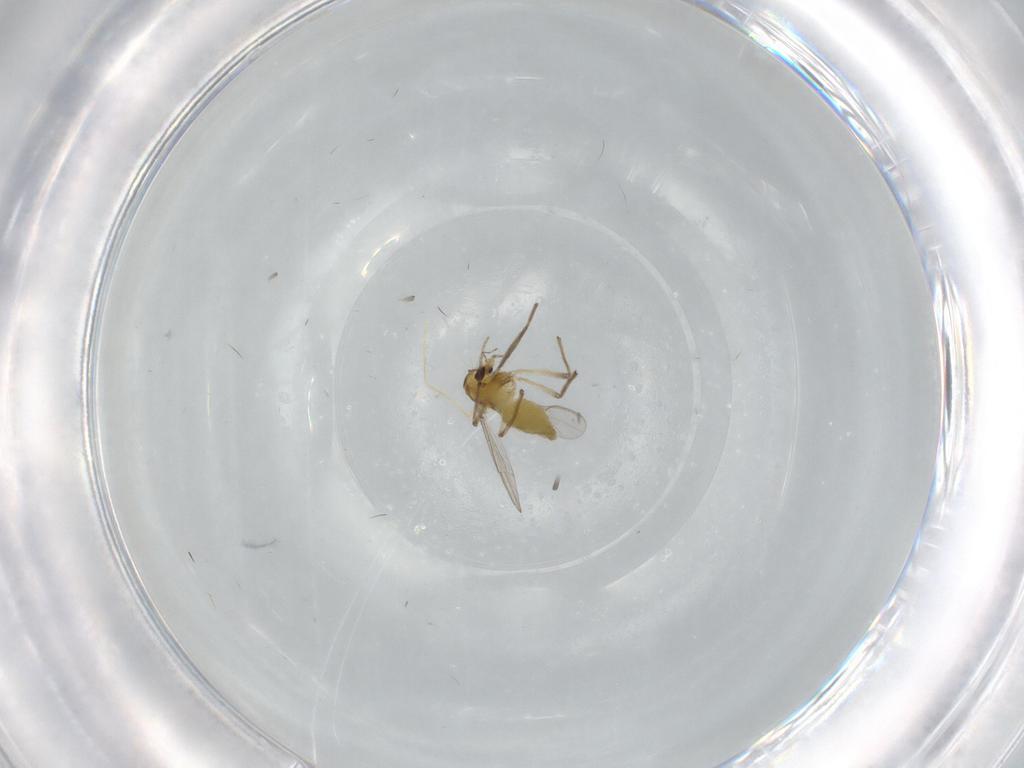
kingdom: Animalia
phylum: Arthropoda
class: Insecta
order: Diptera
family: Chironomidae
